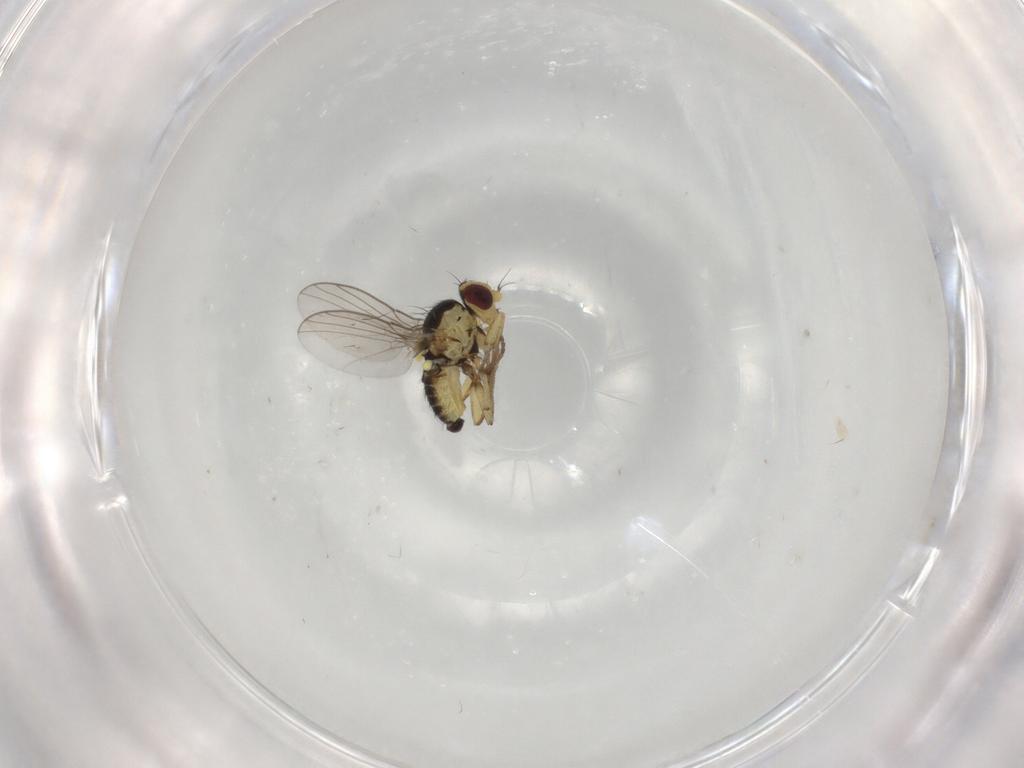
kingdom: Animalia
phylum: Arthropoda
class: Insecta
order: Diptera
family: Agromyzidae
